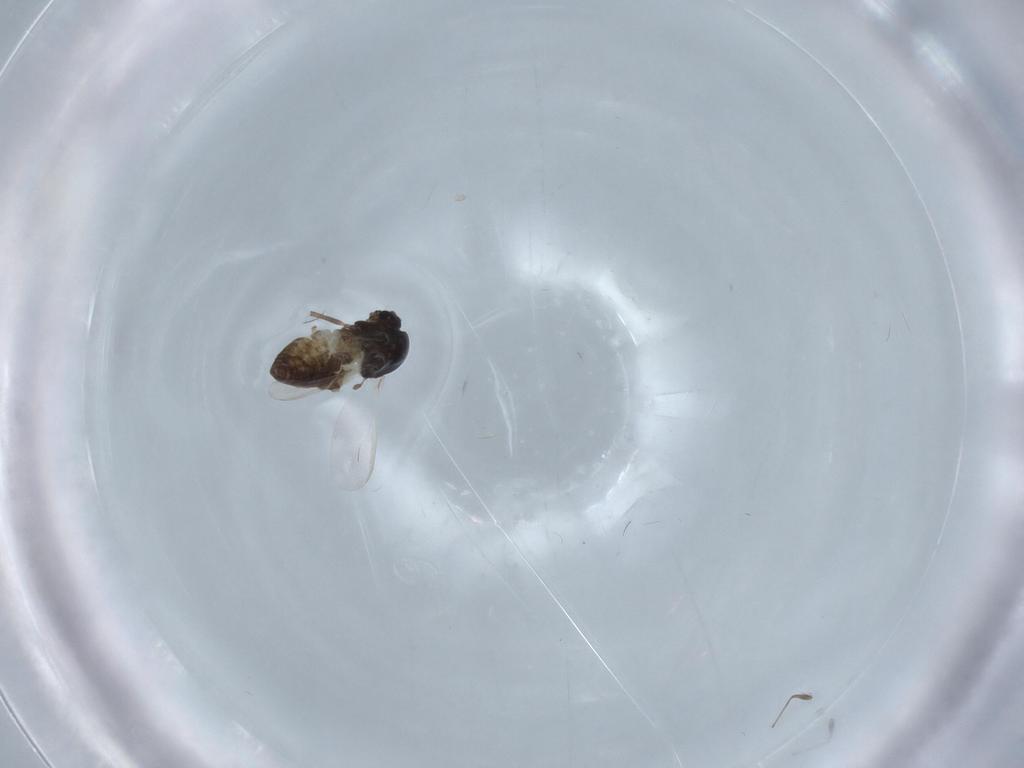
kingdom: Animalia
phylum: Arthropoda
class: Insecta
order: Diptera
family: Chironomidae
